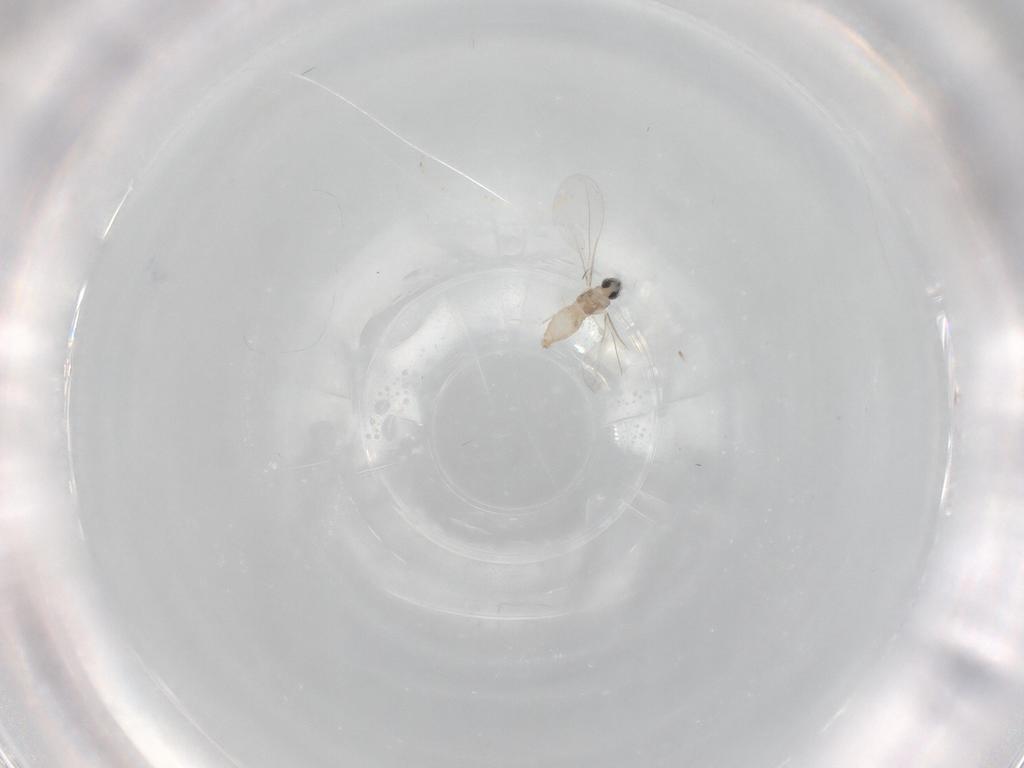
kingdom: Animalia
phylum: Arthropoda
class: Insecta
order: Diptera
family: Cecidomyiidae
